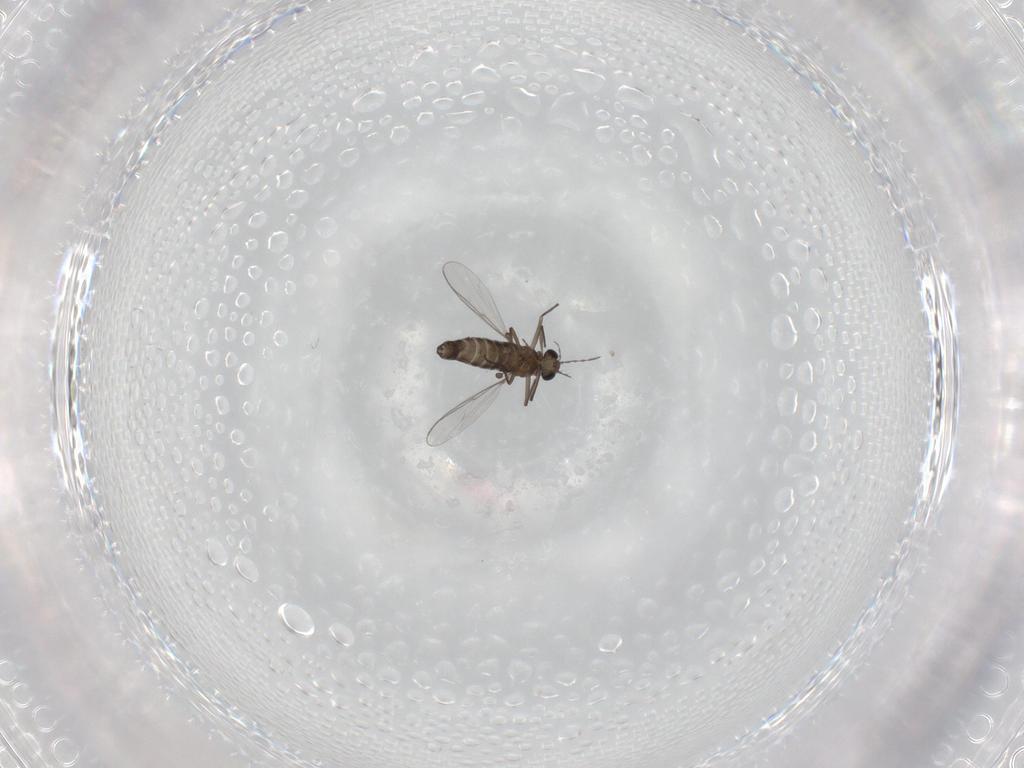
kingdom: Animalia
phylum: Arthropoda
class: Insecta
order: Diptera
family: Chironomidae
